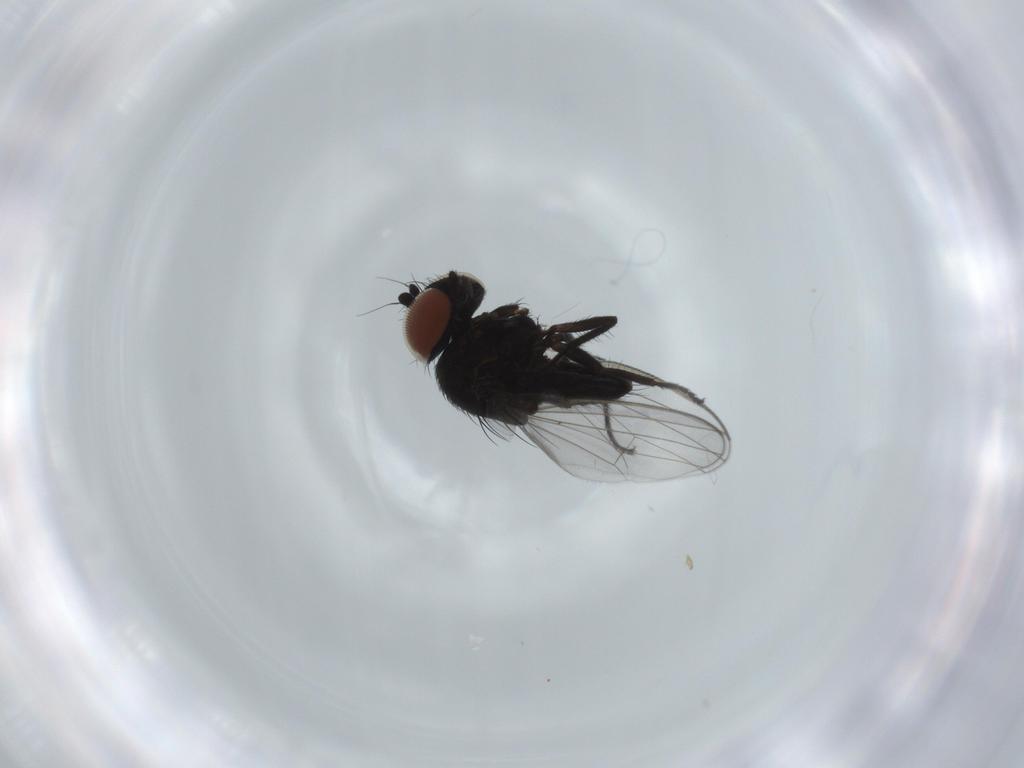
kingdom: Animalia
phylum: Arthropoda
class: Insecta
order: Diptera
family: Milichiidae
